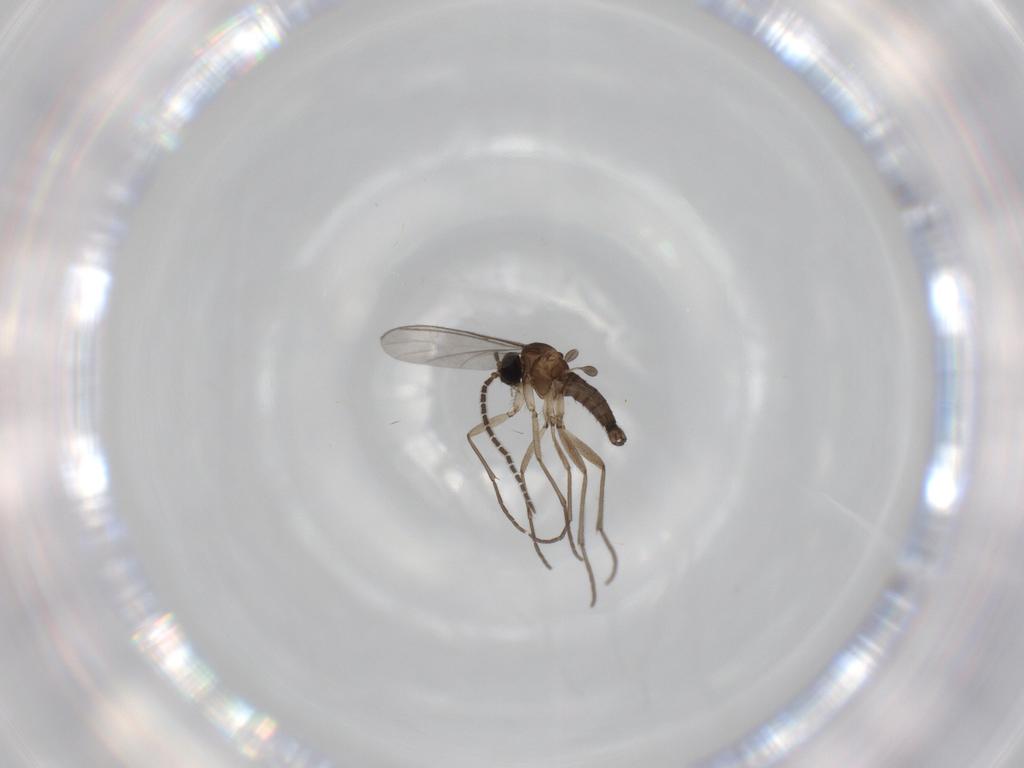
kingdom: Animalia
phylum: Arthropoda
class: Insecta
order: Diptera
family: Sciaridae
